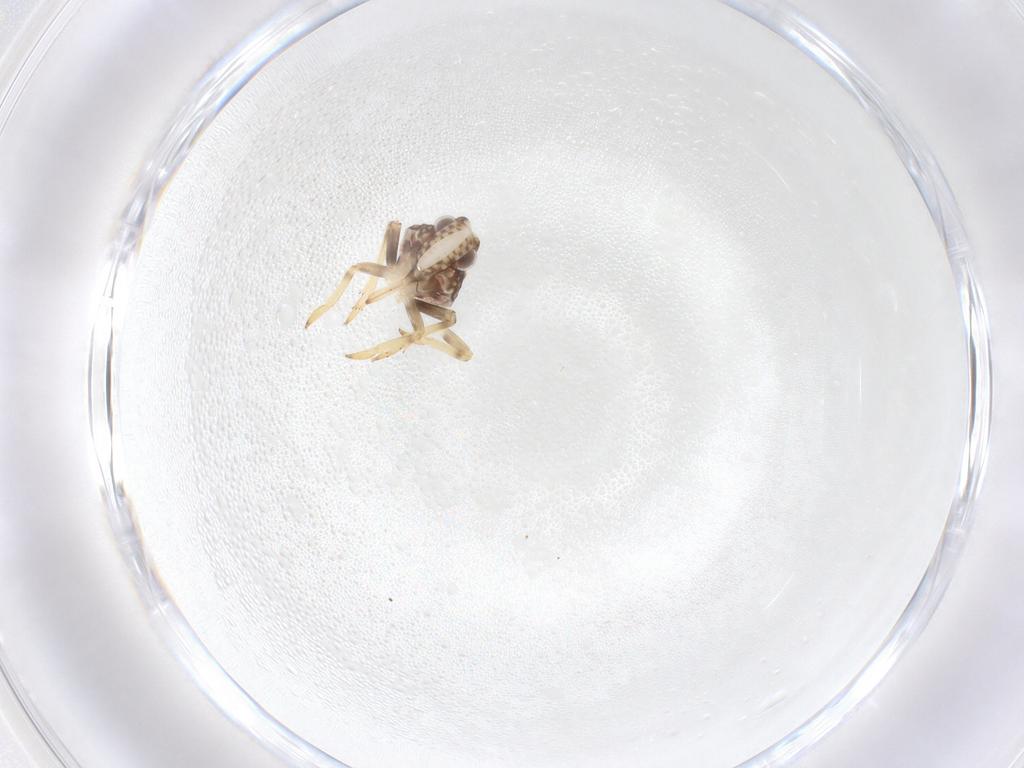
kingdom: Animalia
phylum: Arthropoda
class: Insecta
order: Hemiptera
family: Tropiduchidae
